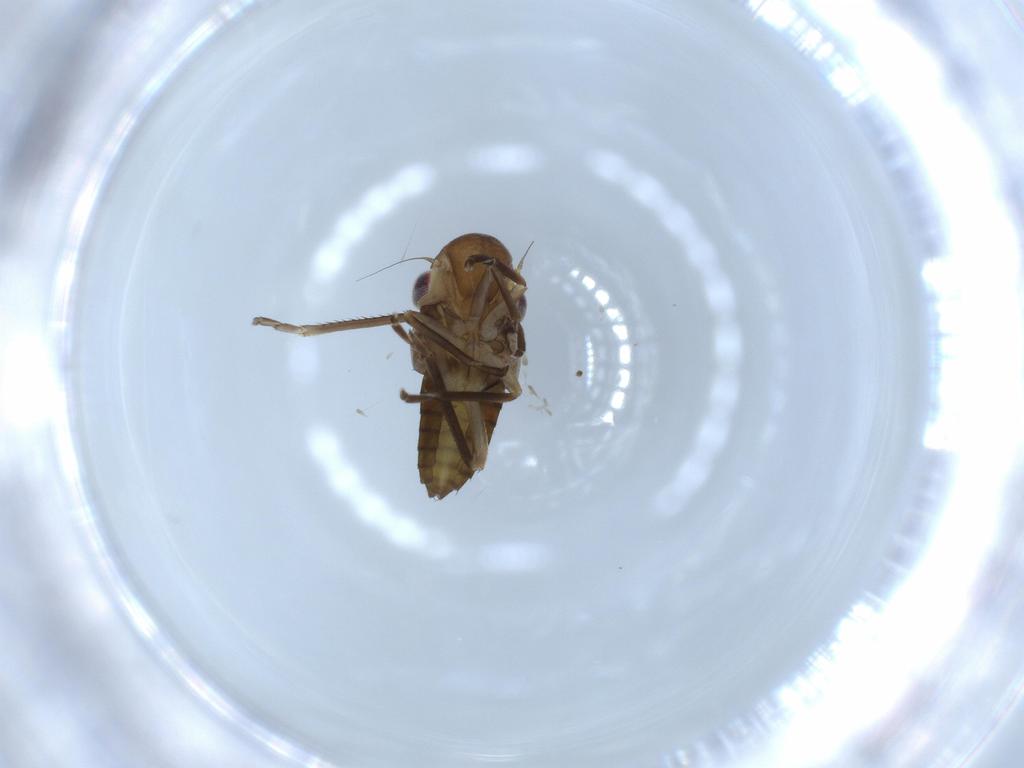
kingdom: Animalia
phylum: Arthropoda
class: Insecta
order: Hemiptera
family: Cicadellidae
